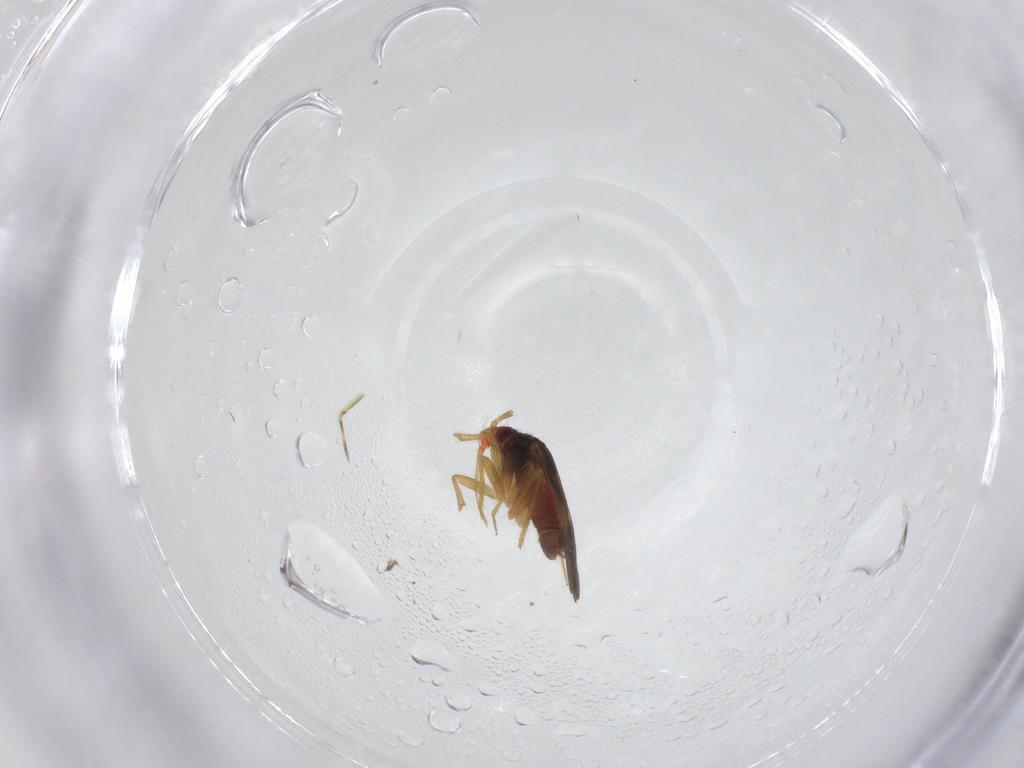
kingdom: Animalia
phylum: Arthropoda
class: Insecta
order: Hemiptera
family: Ceratocombidae
